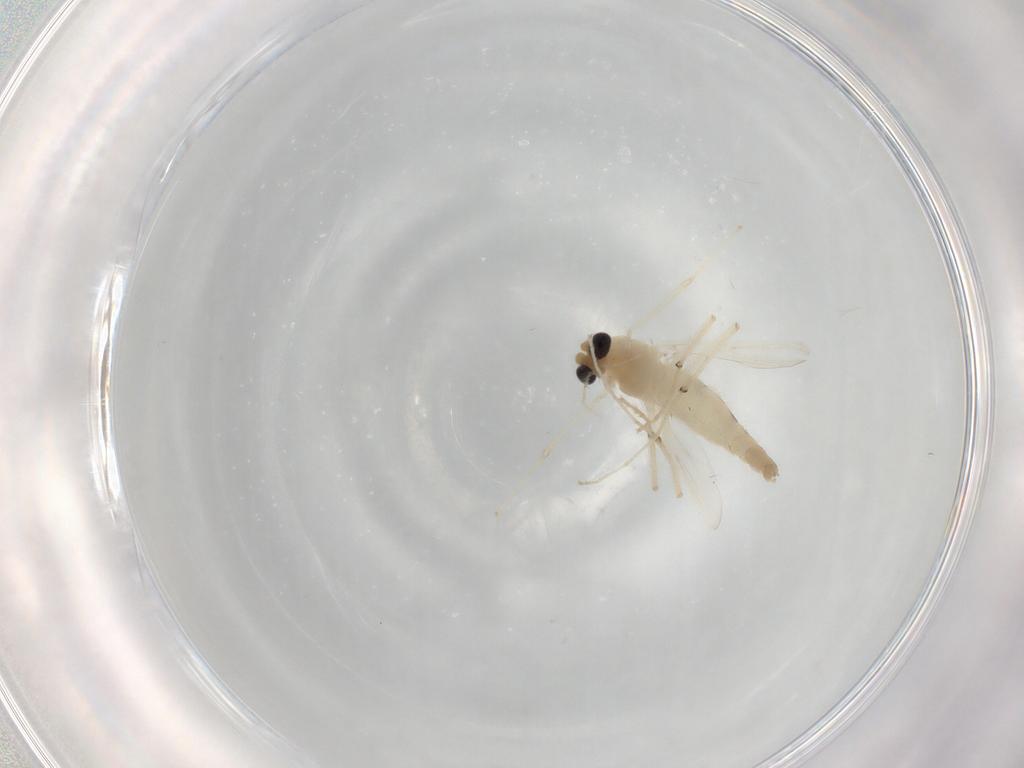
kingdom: Animalia
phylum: Arthropoda
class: Insecta
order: Diptera
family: Chironomidae
